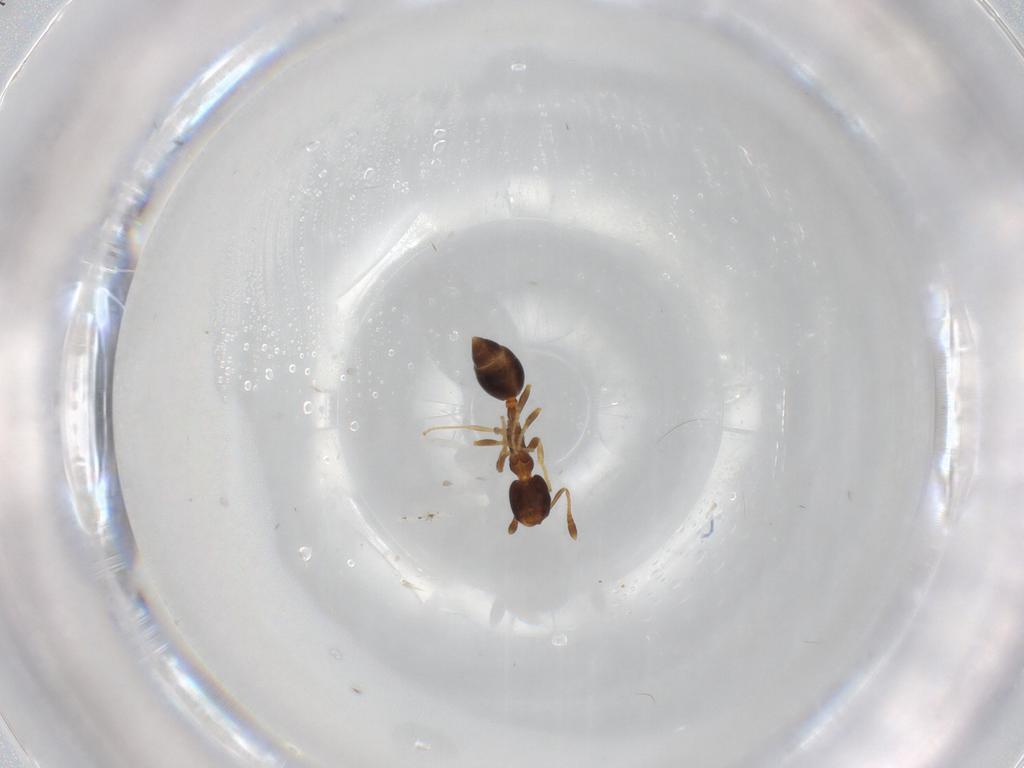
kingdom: Animalia
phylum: Arthropoda
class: Insecta
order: Hymenoptera
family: Formicidae
